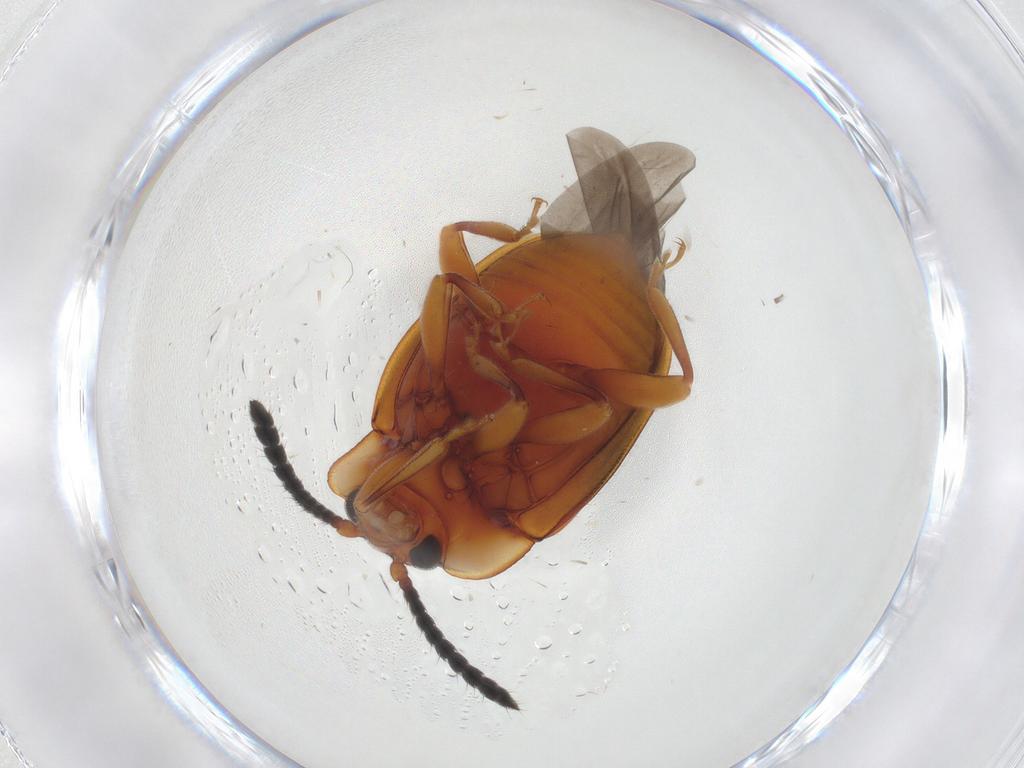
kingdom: Animalia
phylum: Arthropoda
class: Insecta
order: Coleoptera
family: Endomychidae
